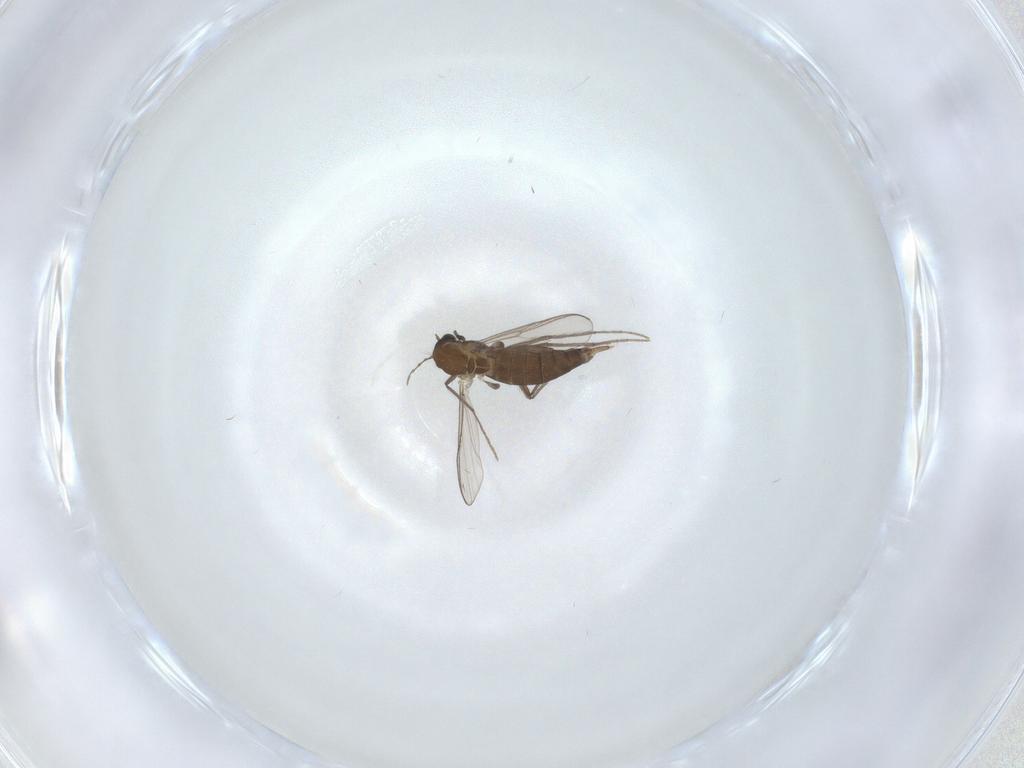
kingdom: Animalia
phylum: Arthropoda
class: Insecta
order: Diptera
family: Chironomidae
